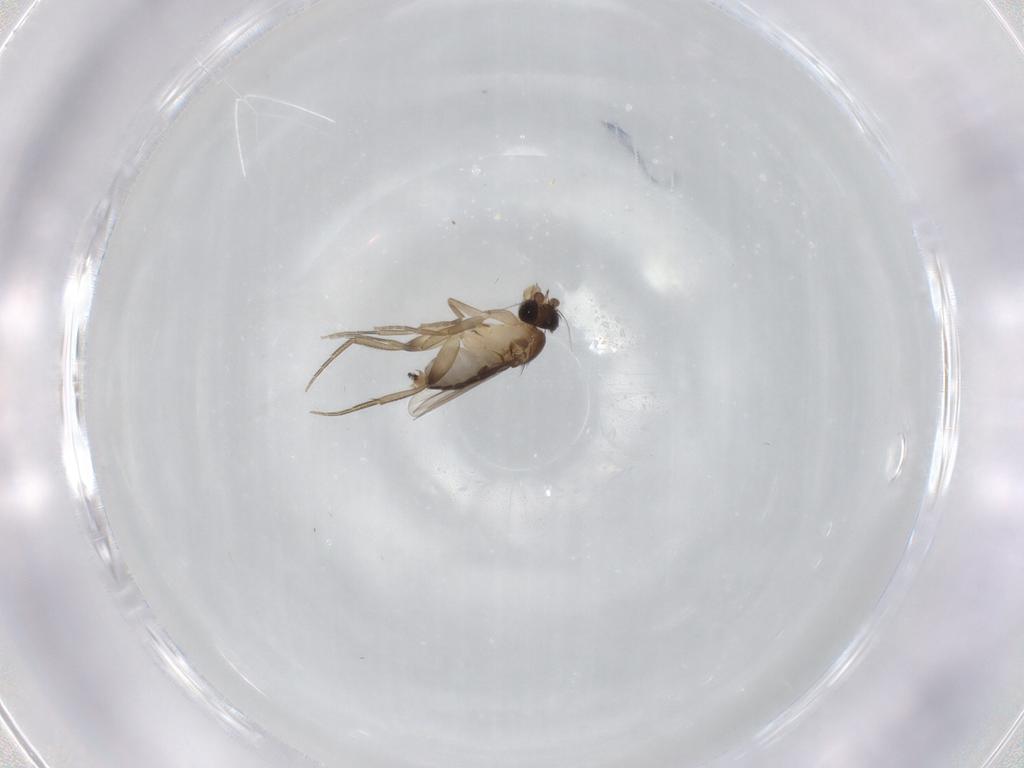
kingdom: Animalia
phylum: Arthropoda
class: Insecta
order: Diptera
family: Phoridae
